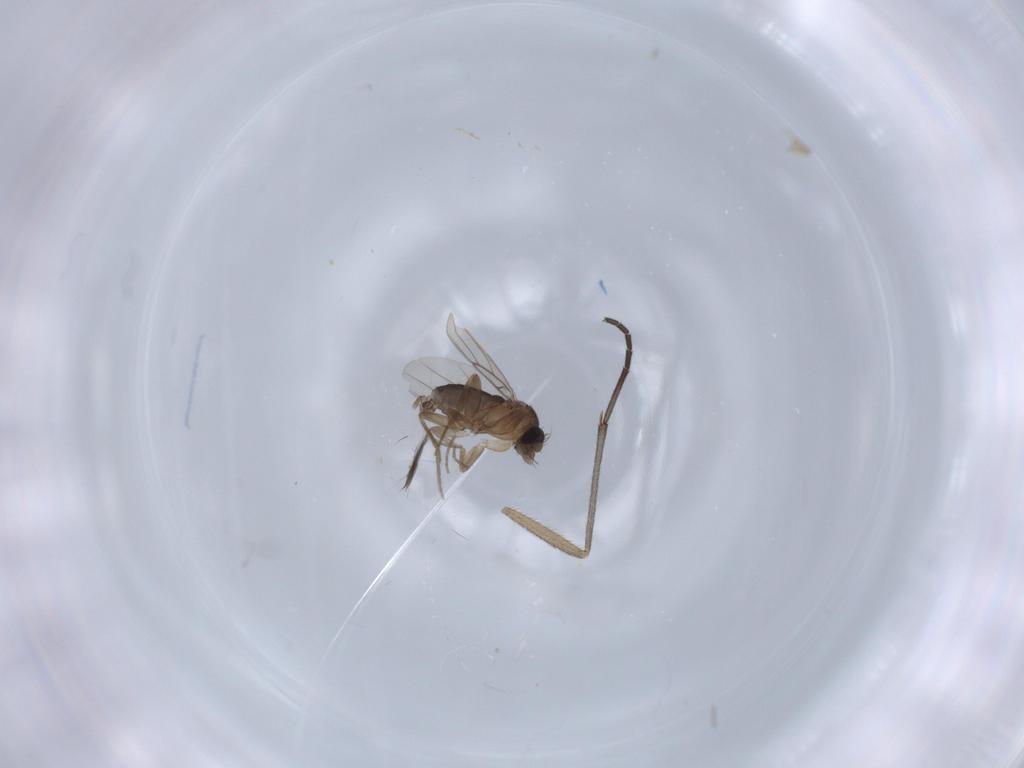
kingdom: Animalia
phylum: Arthropoda
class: Insecta
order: Diptera
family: Phoridae
